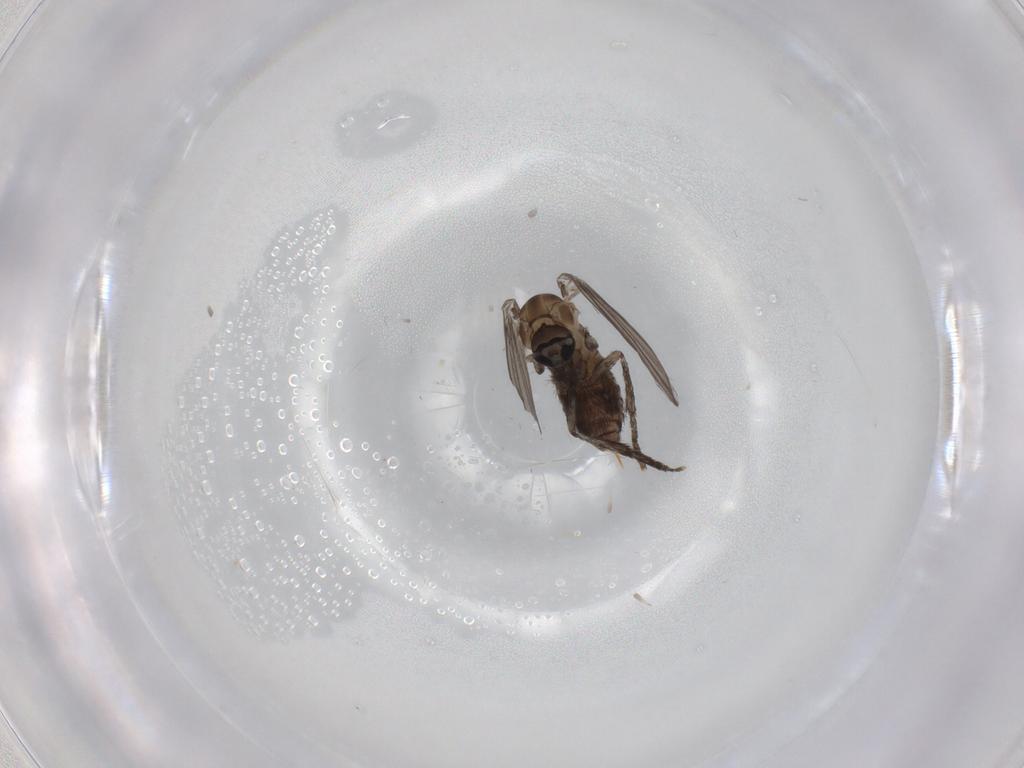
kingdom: Animalia
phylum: Arthropoda
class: Insecta
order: Diptera
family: Psychodidae
